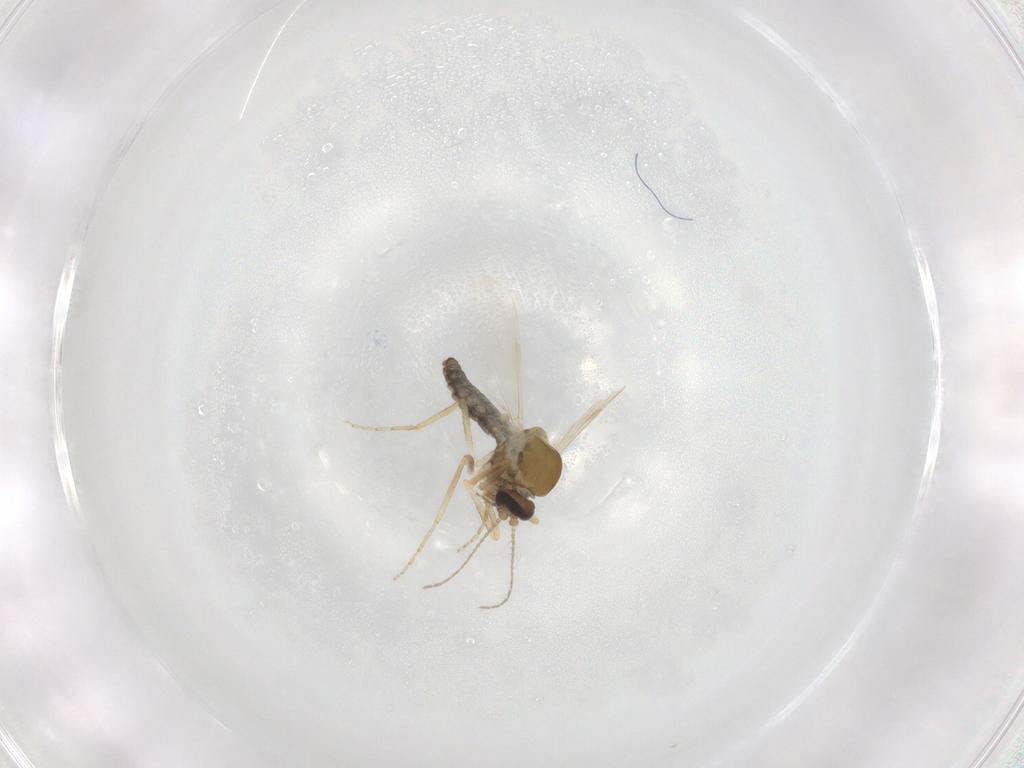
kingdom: Animalia
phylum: Arthropoda
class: Insecta
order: Diptera
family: Ceratopogonidae
